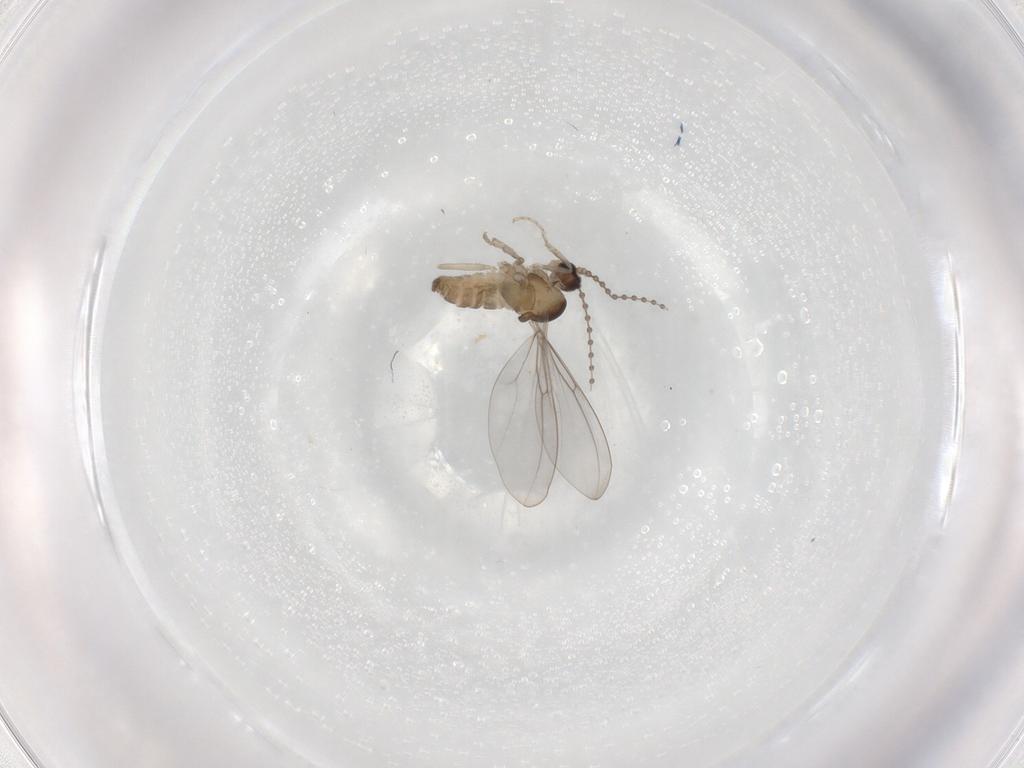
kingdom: Animalia
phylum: Arthropoda
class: Insecta
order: Diptera
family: Cecidomyiidae
